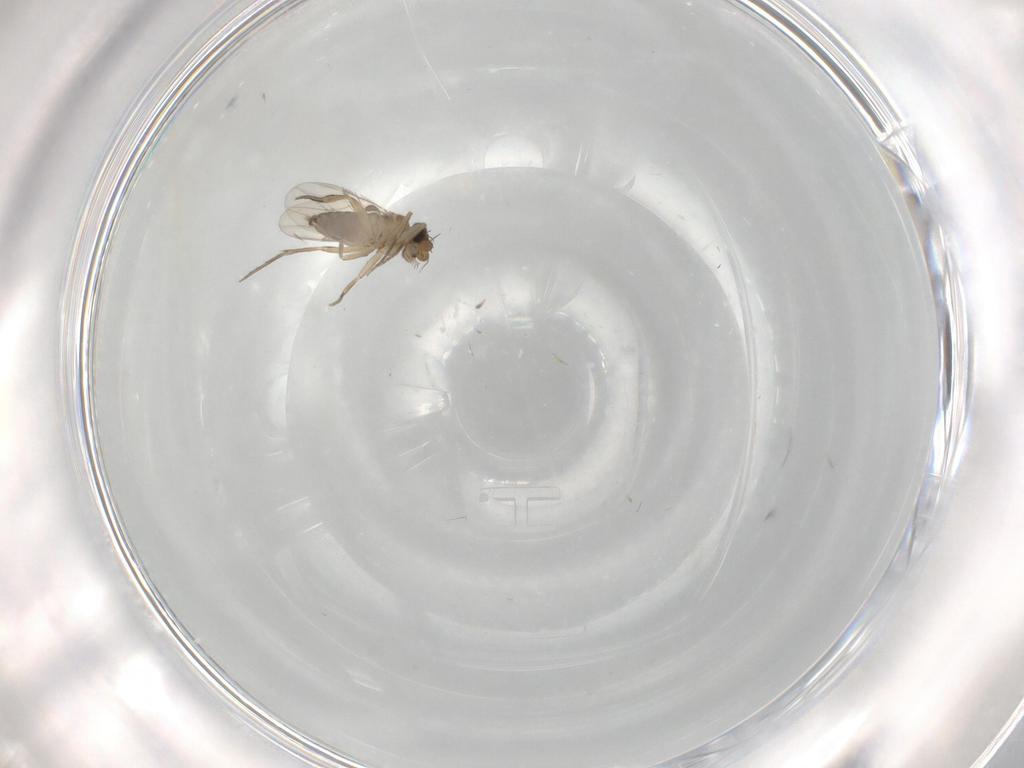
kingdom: Animalia
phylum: Arthropoda
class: Insecta
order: Diptera
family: Phoridae
